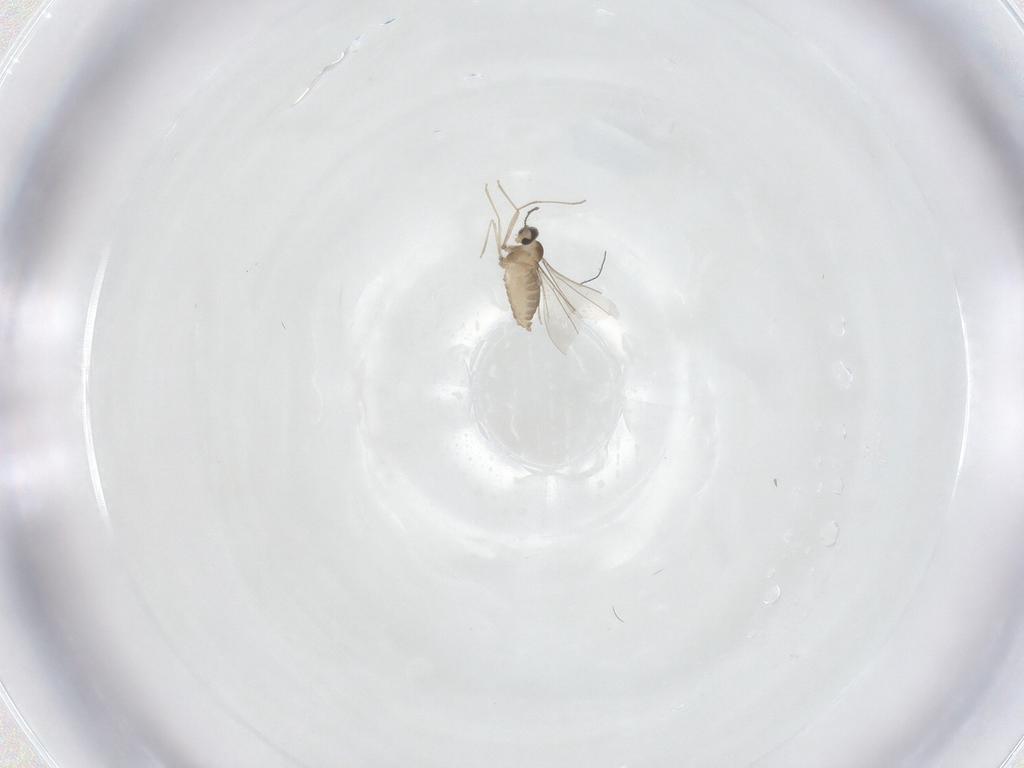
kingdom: Animalia
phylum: Arthropoda
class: Insecta
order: Diptera
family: Cecidomyiidae
